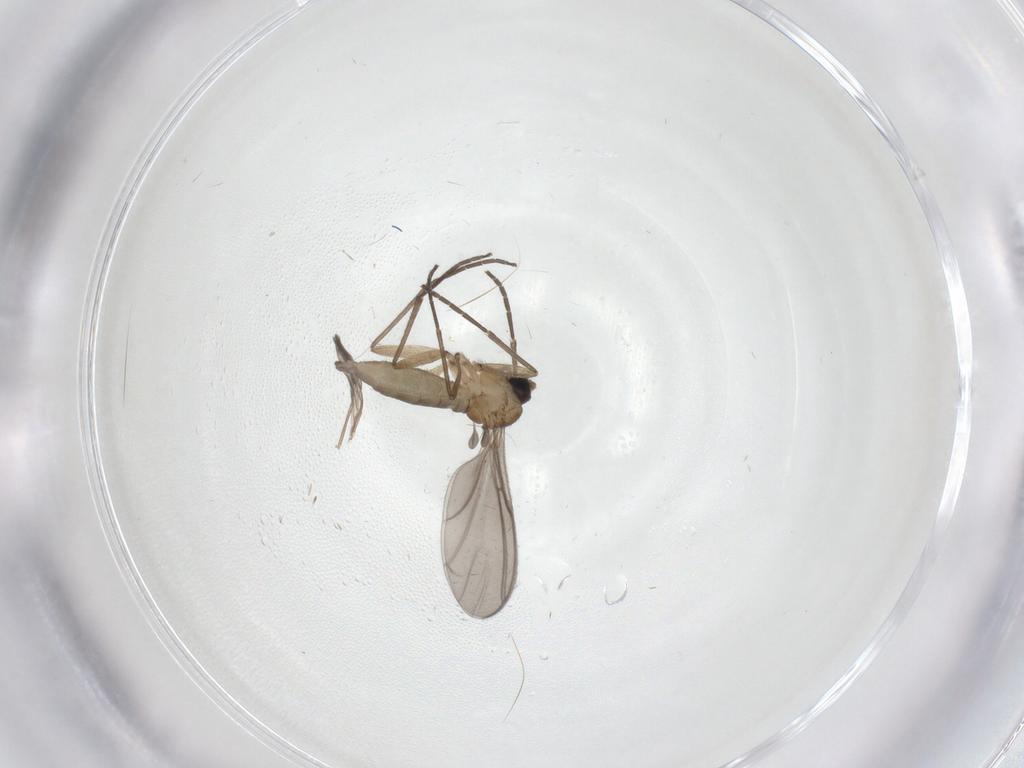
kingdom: Animalia
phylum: Arthropoda
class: Insecta
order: Diptera
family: Sciaridae
